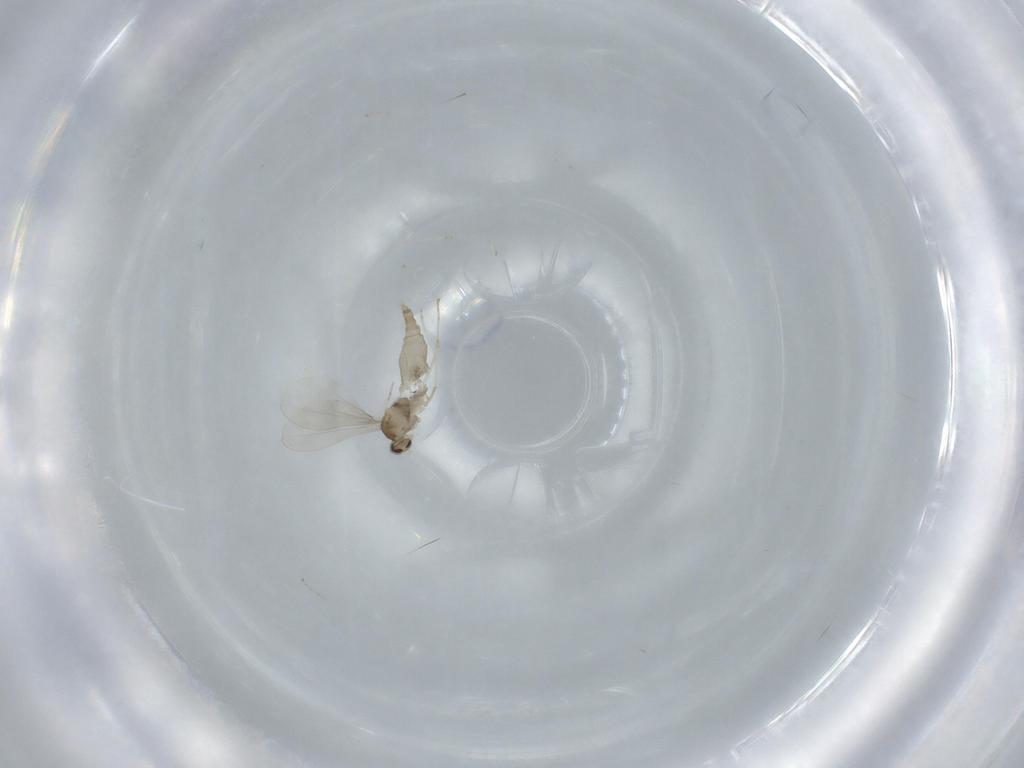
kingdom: Animalia
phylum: Arthropoda
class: Insecta
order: Diptera
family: Cecidomyiidae
